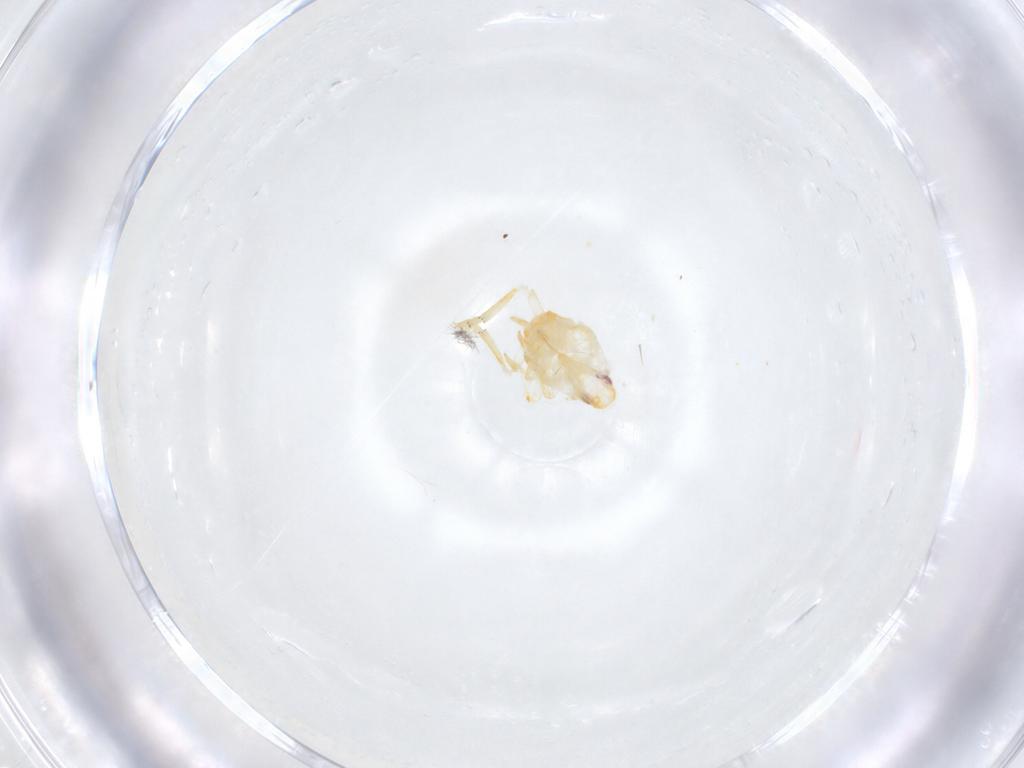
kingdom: Animalia
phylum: Arthropoda
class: Insecta
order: Hemiptera
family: Flatidae
